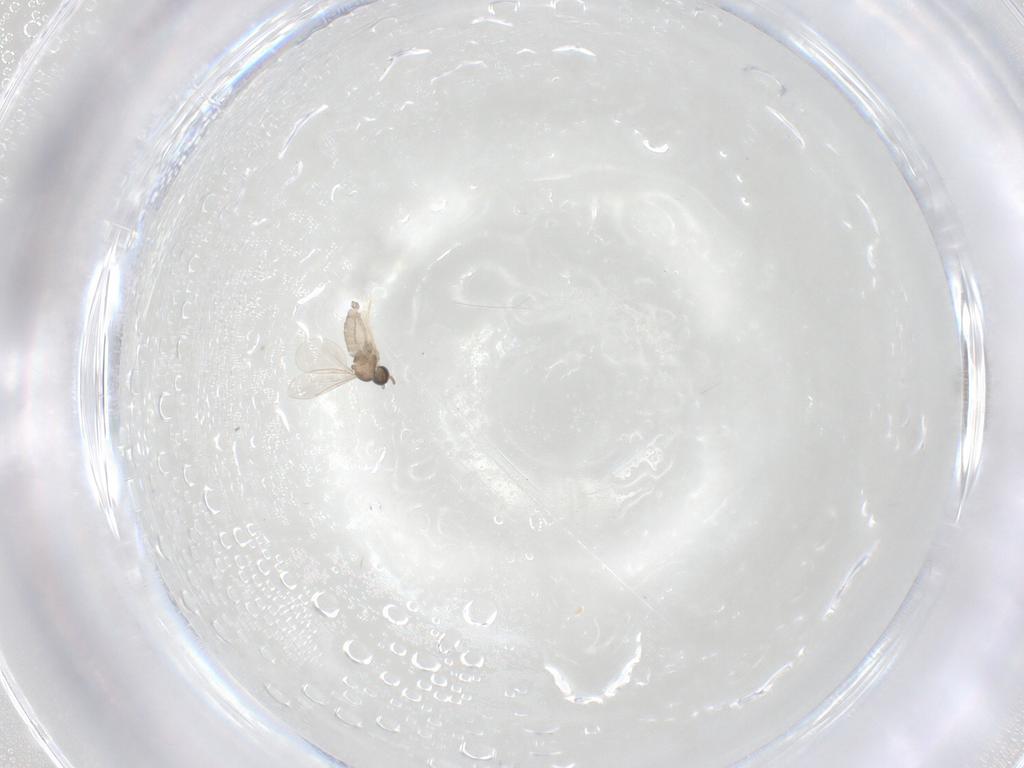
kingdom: Animalia
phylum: Arthropoda
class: Insecta
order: Diptera
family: Cecidomyiidae
